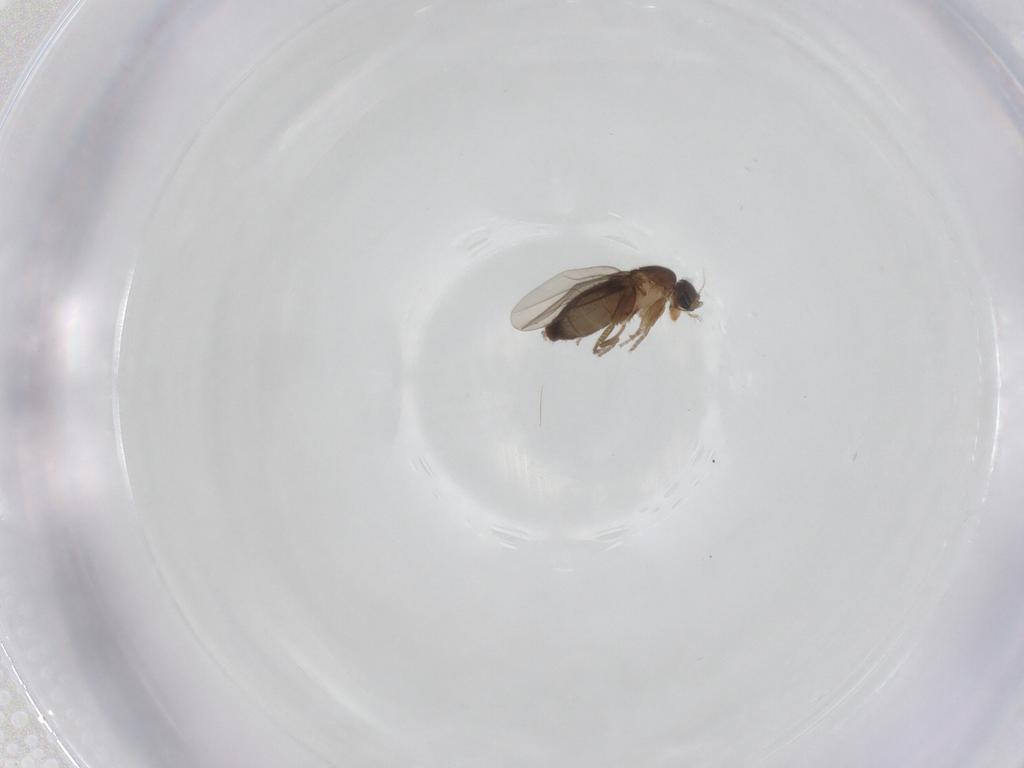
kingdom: Animalia
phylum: Arthropoda
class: Insecta
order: Diptera
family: Phoridae
